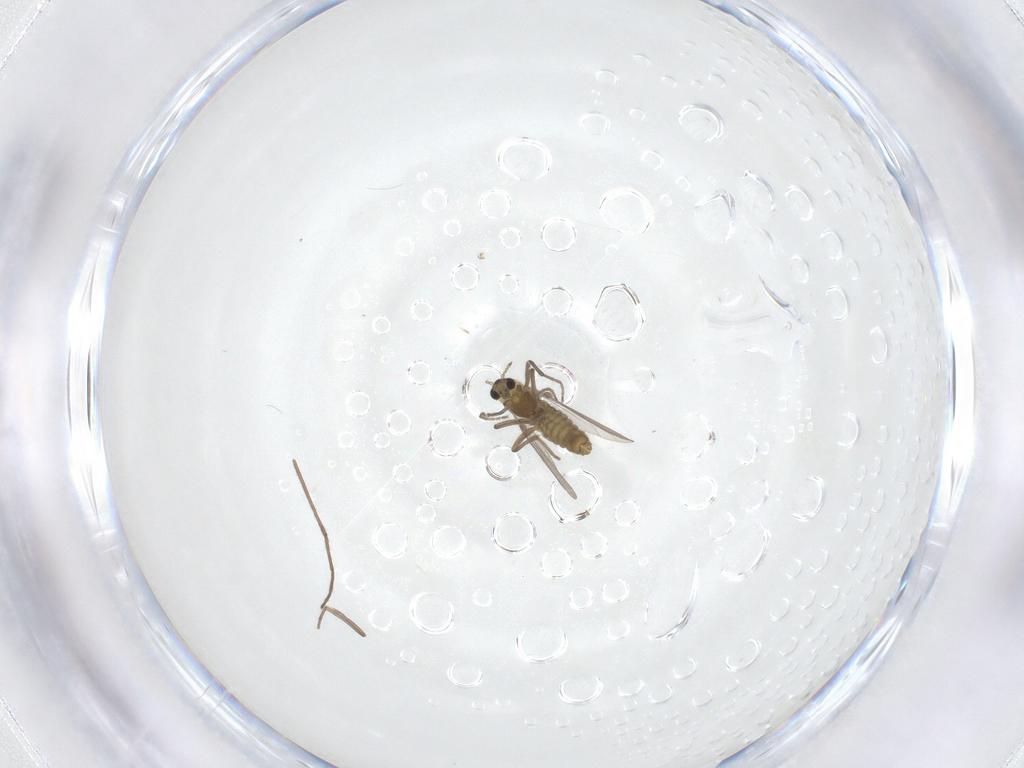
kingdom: Animalia
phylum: Arthropoda
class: Insecta
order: Diptera
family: Chironomidae
